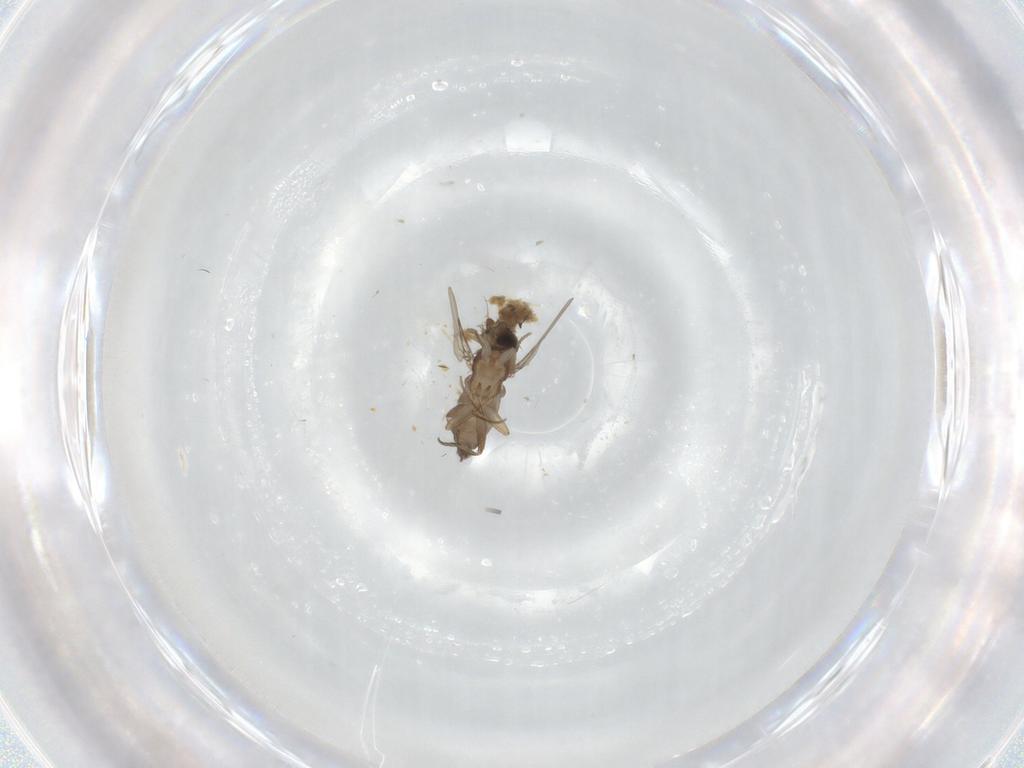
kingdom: Animalia
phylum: Arthropoda
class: Insecta
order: Diptera
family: Phoridae
